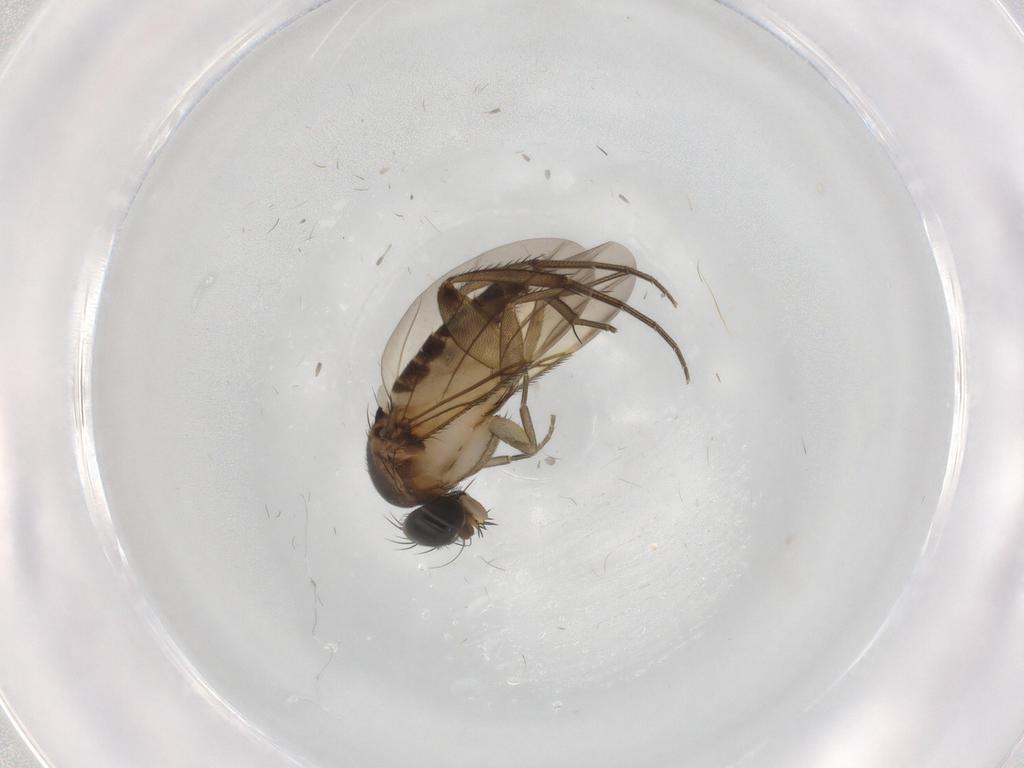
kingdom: Animalia
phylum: Arthropoda
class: Insecta
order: Diptera
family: Phoridae
